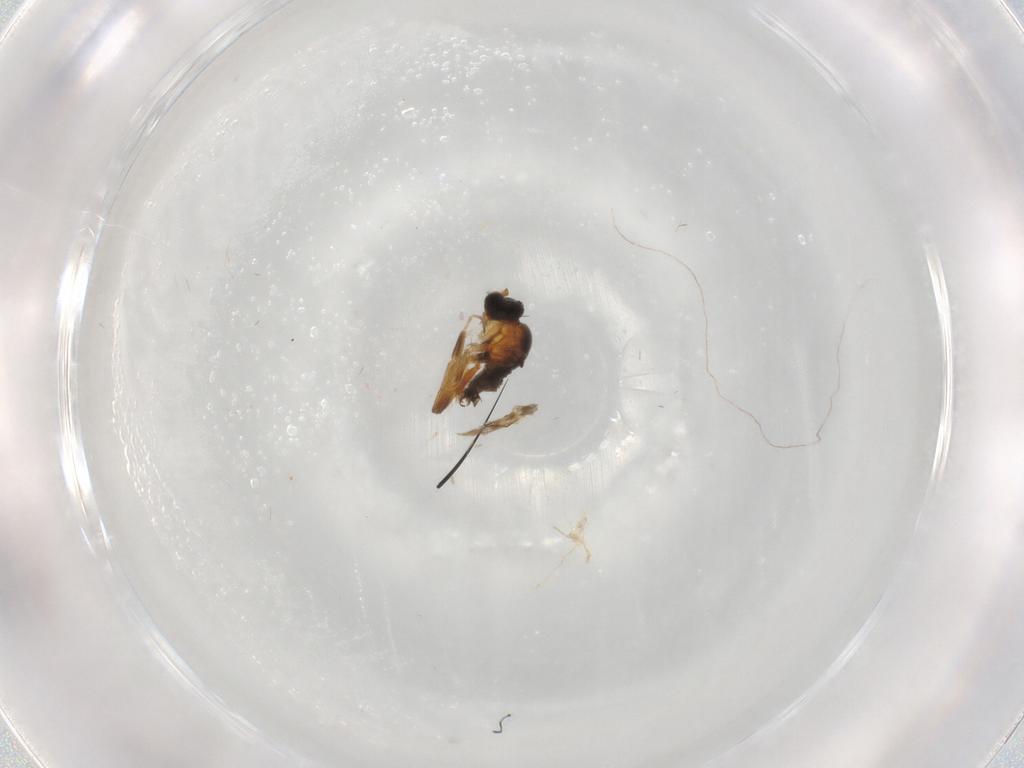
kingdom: Animalia
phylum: Arthropoda
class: Insecta
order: Diptera
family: Psychodidae
